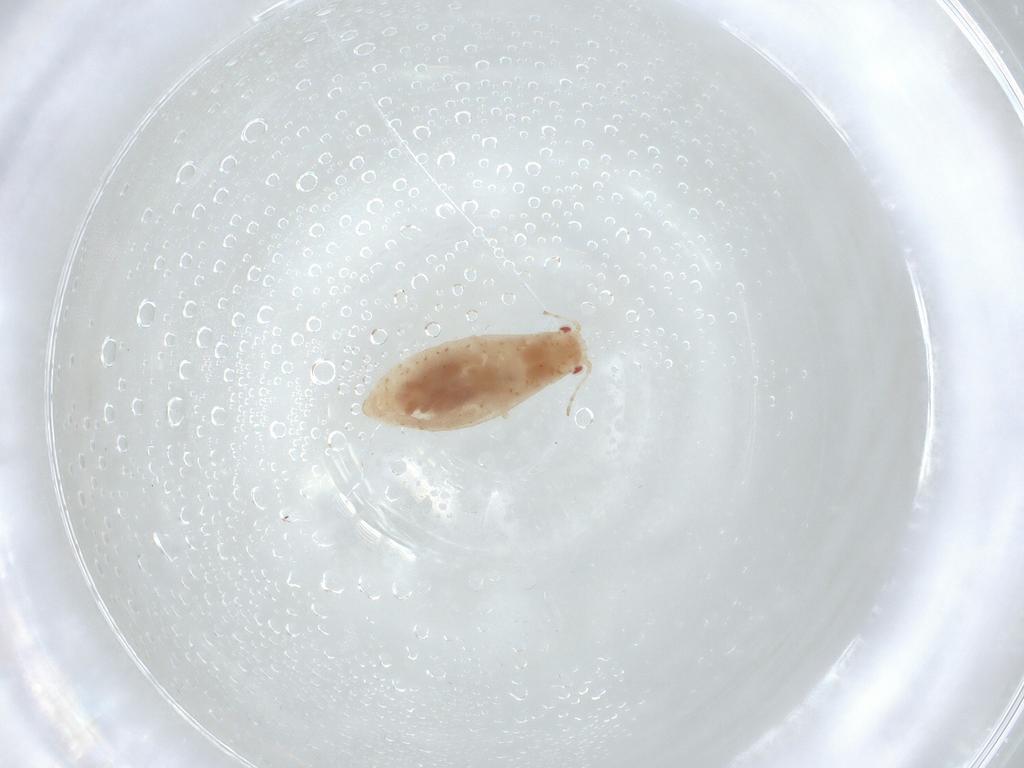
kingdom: Animalia
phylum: Arthropoda
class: Insecta
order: Hemiptera
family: Lachnidae
